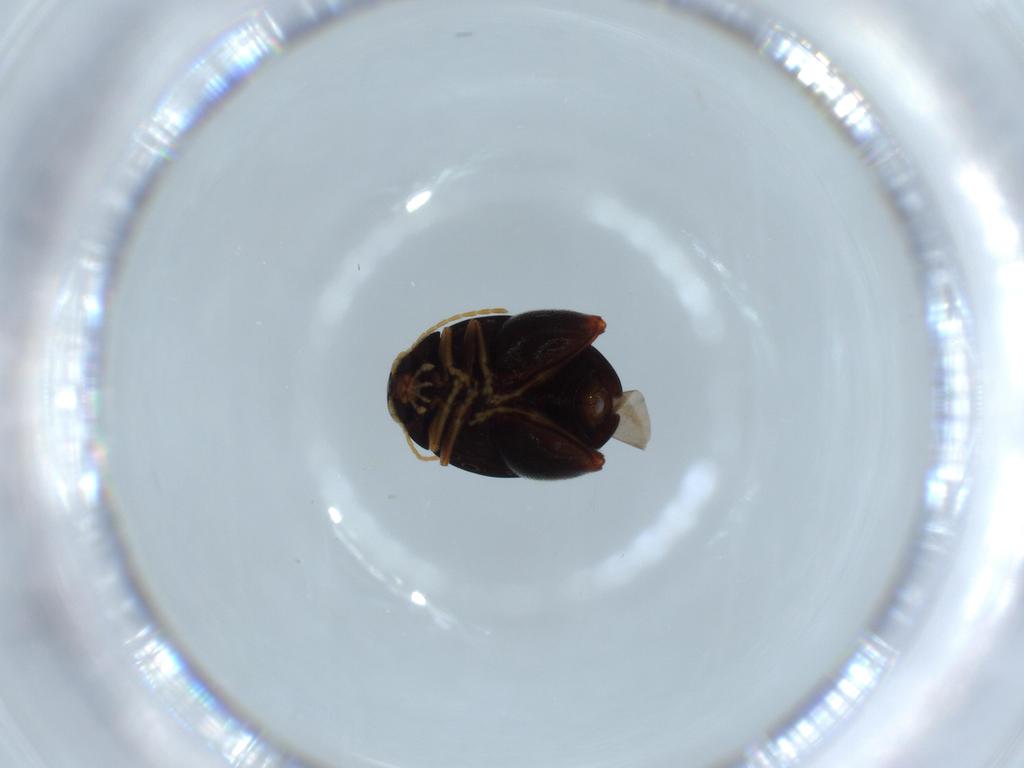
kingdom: Animalia
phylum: Arthropoda
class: Insecta
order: Coleoptera
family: Chrysomelidae
